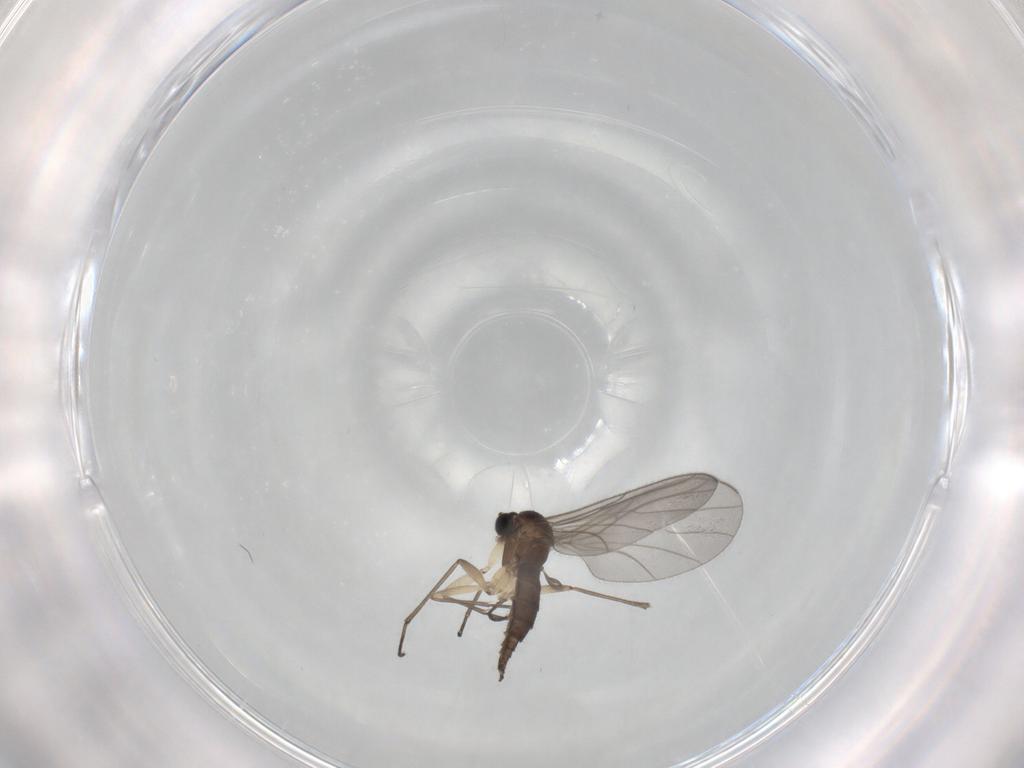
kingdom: Animalia
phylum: Arthropoda
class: Insecta
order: Diptera
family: Sciaridae
